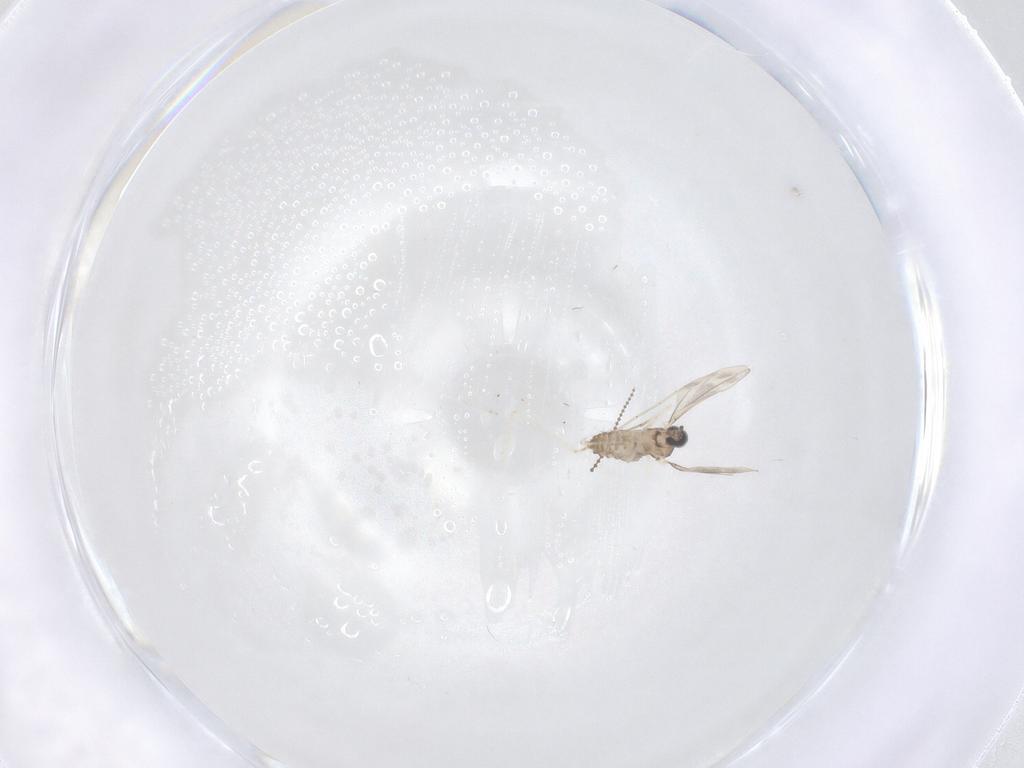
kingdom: Animalia
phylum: Arthropoda
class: Insecta
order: Diptera
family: Cecidomyiidae
